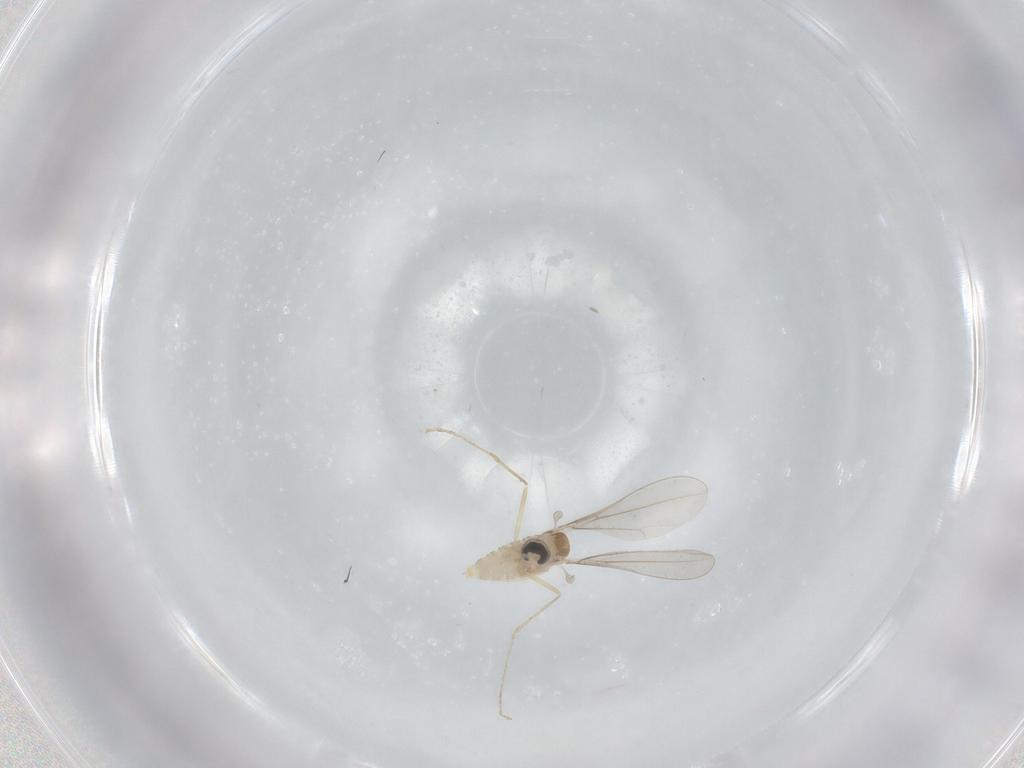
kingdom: Animalia
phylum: Arthropoda
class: Insecta
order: Diptera
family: Cecidomyiidae
